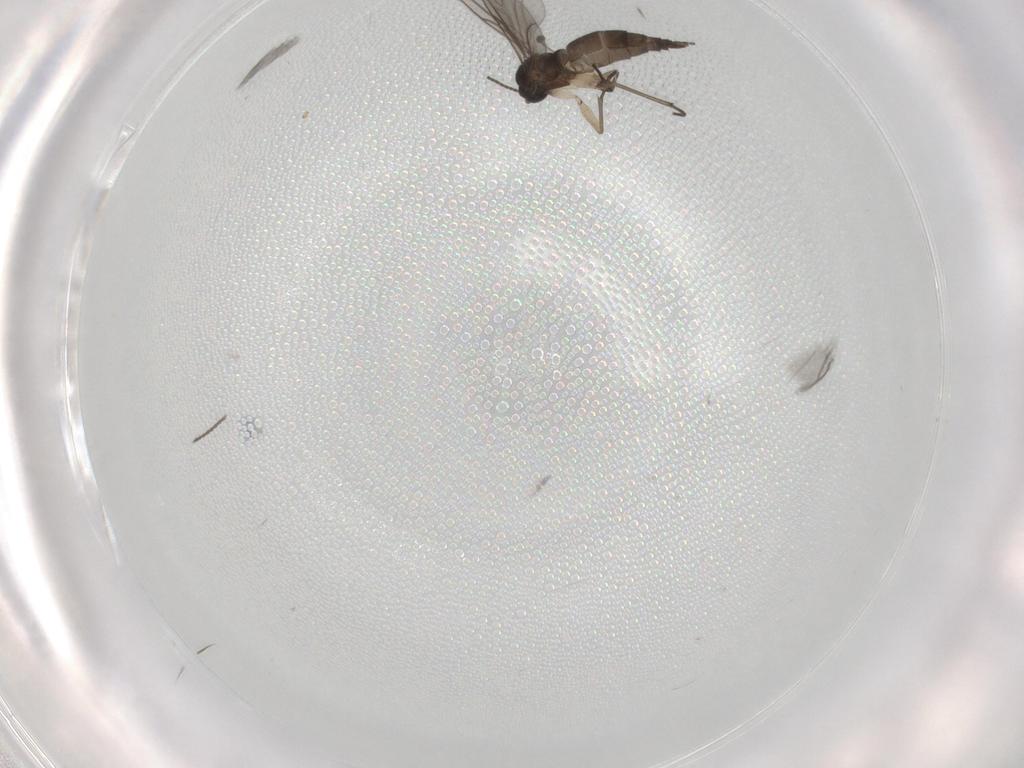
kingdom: Animalia
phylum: Arthropoda
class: Insecta
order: Diptera
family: Sciaridae
